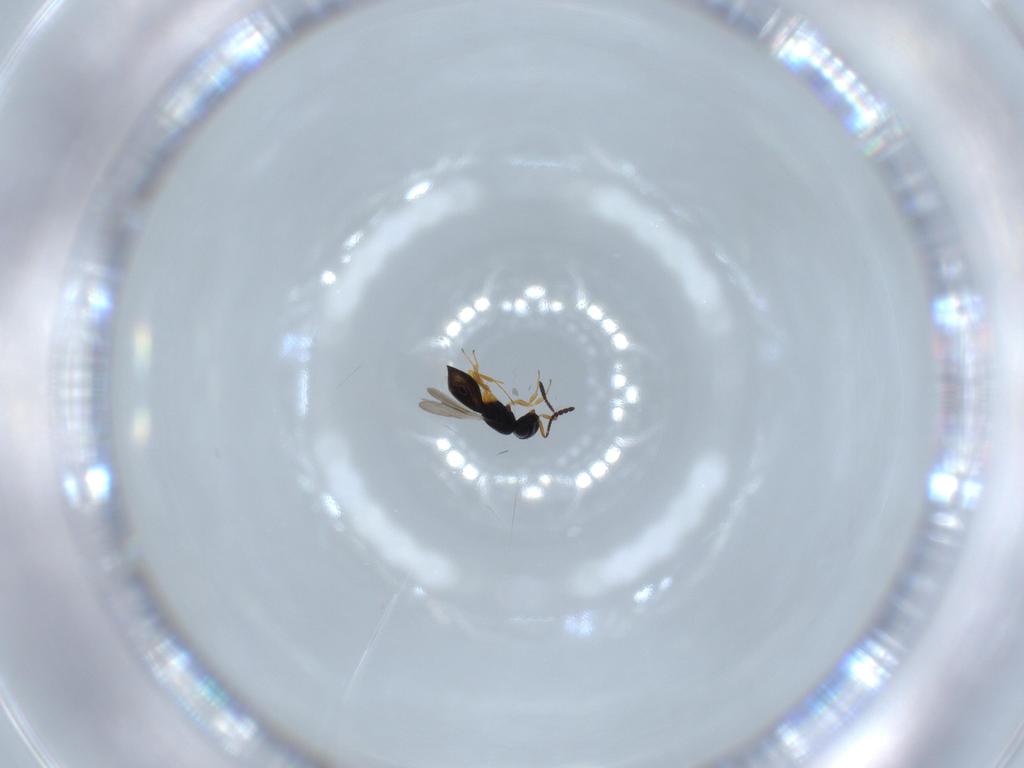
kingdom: Animalia
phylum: Arthropoda
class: Insecta
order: Hymenoptera
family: Scelionidae
